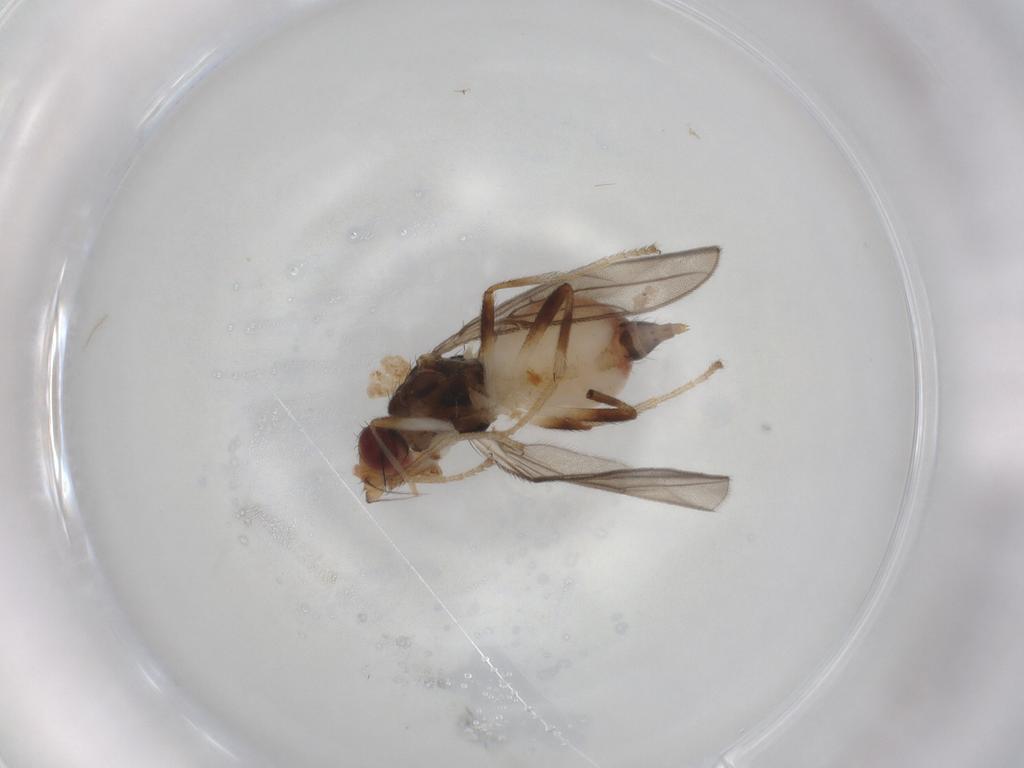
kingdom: Animalia
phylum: Arthropoda
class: Insecta
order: Diptera
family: Chloropidae
